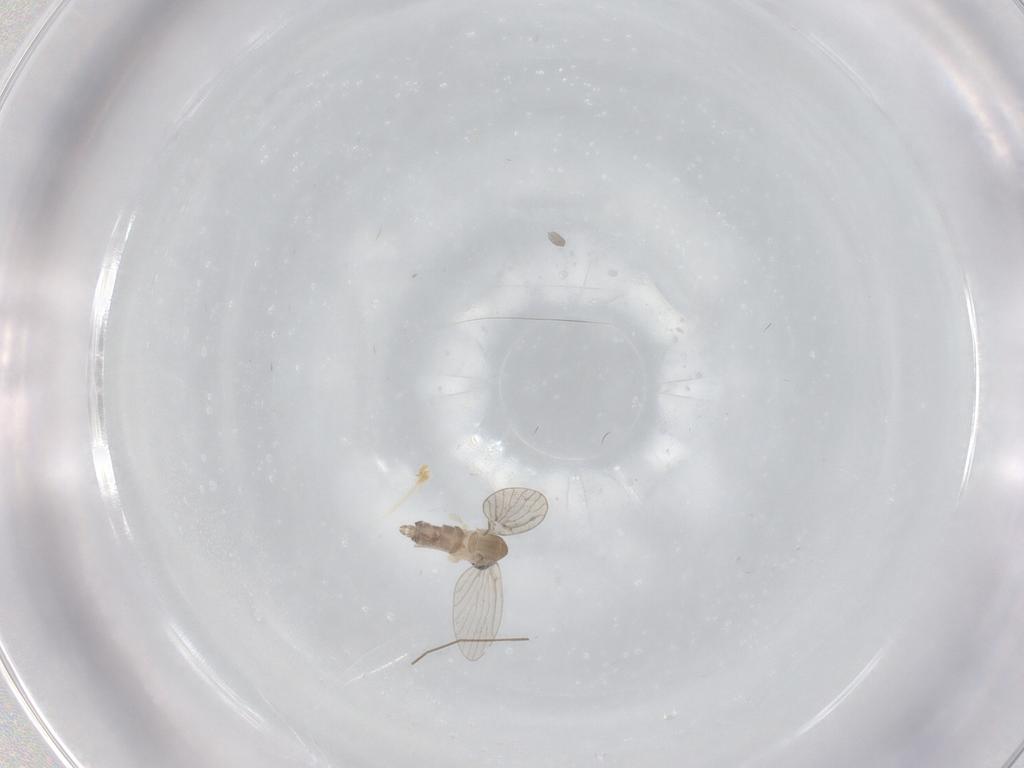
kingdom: Animalia
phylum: Arthropoda
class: Insecta
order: Diptera
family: Psychodidae
